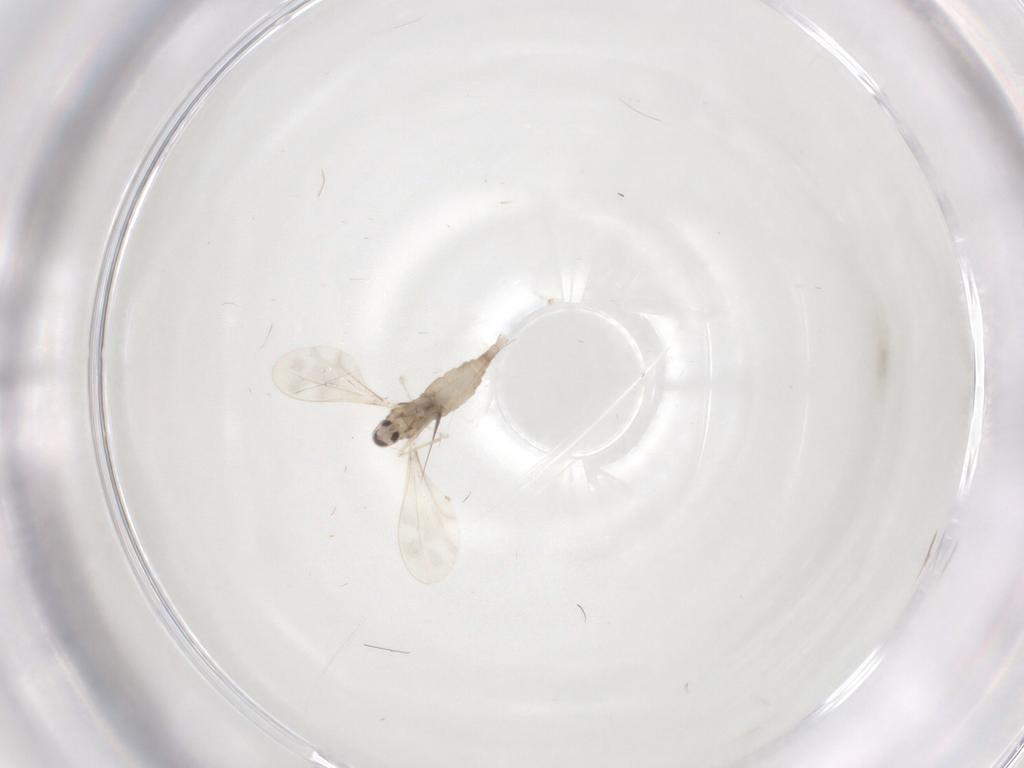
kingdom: Animalia
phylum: Arthropoda
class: Insecta
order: Diptera
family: Cecidomyiidae
